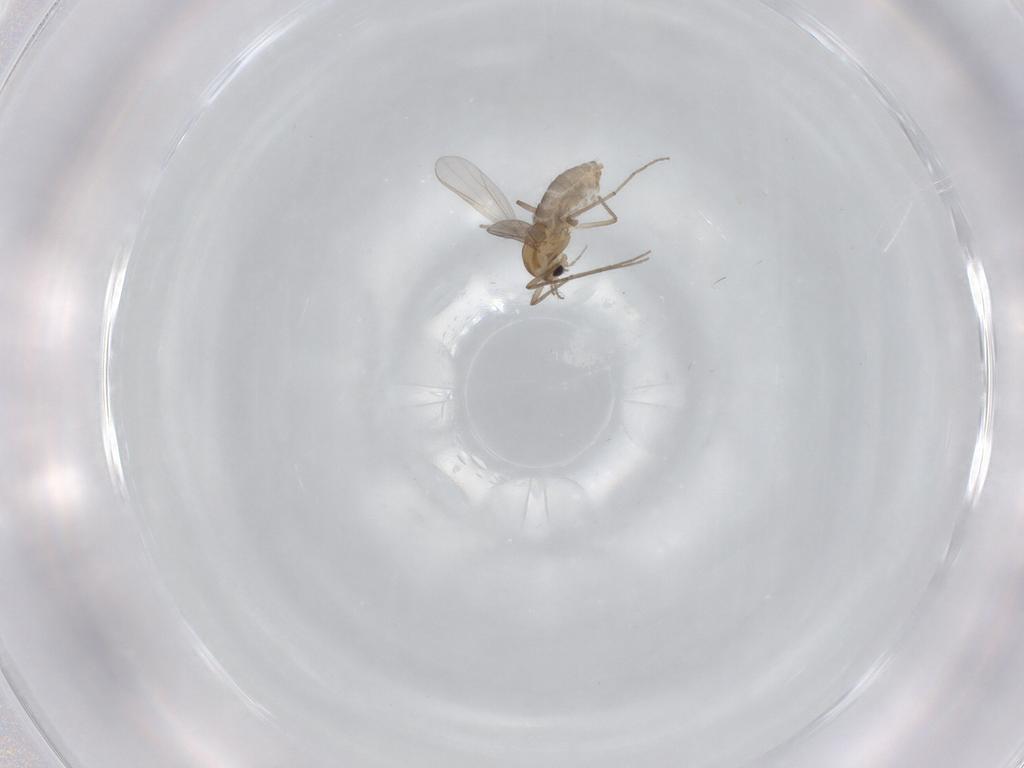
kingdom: Animalia
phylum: Arthropoda
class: Insecta
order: Diptera
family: Chironomidae
